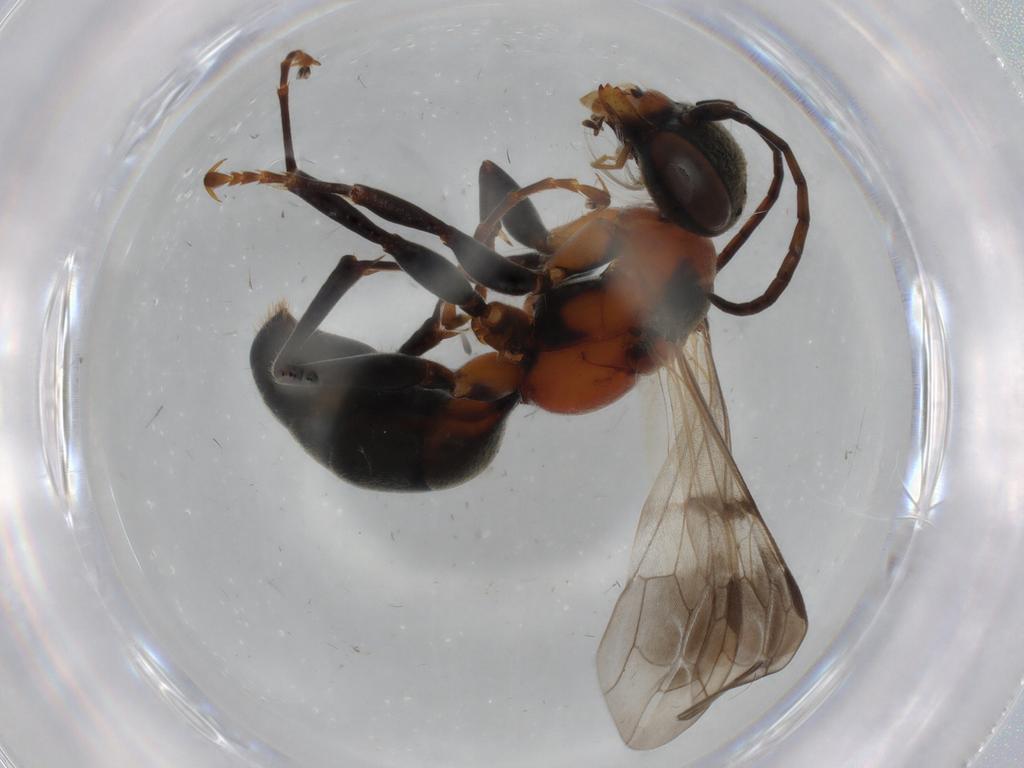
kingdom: Animalia
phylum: Arthropoda
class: Insecta
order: Hymenoptera
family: Pompilidae
